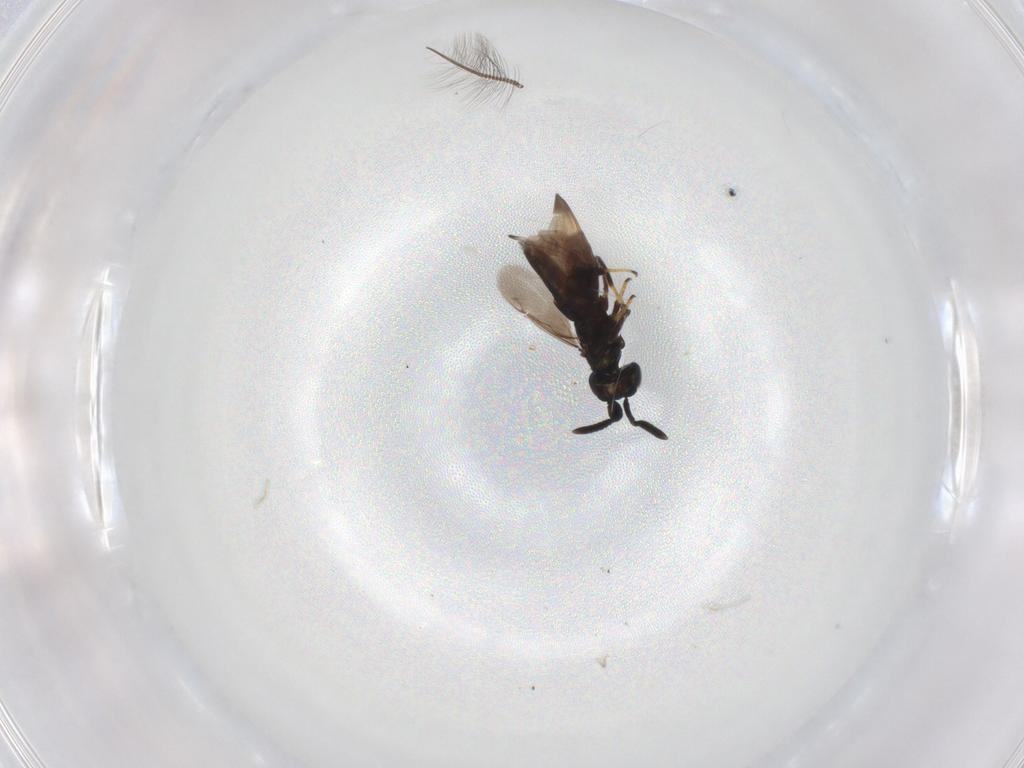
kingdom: Animalia
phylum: Arthropoda
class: Insecta
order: Hymenoptera
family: Encyrtidae
